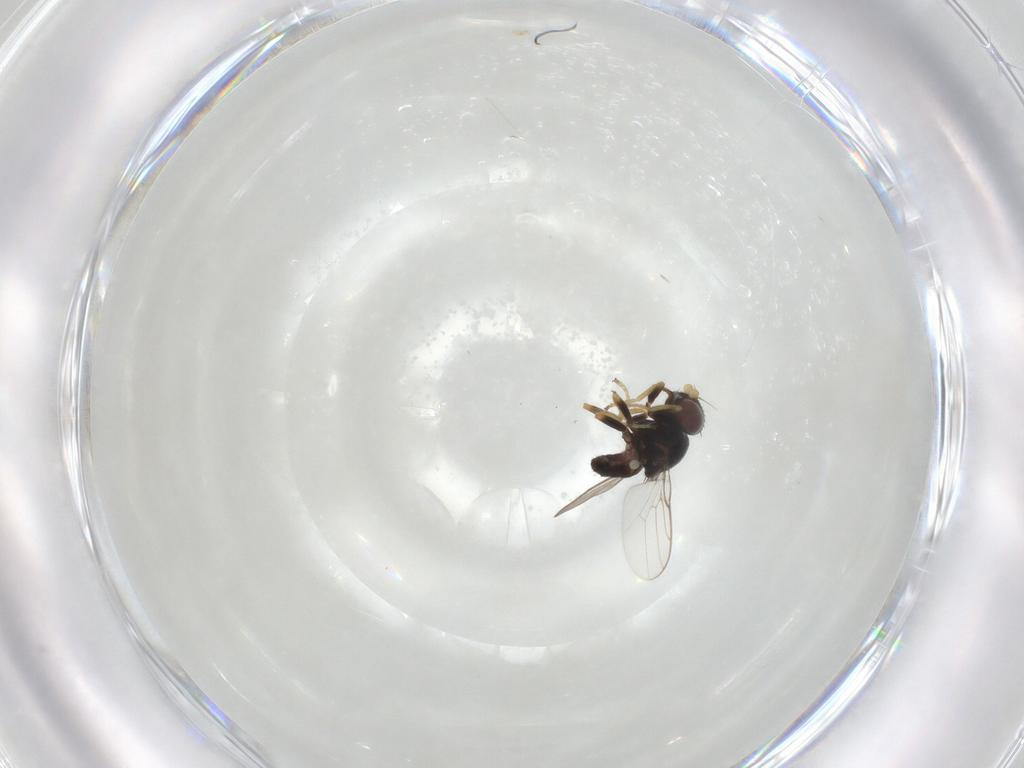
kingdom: Animalia
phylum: Arthropoda
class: Insecta
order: Diptera
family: Chloropidae
